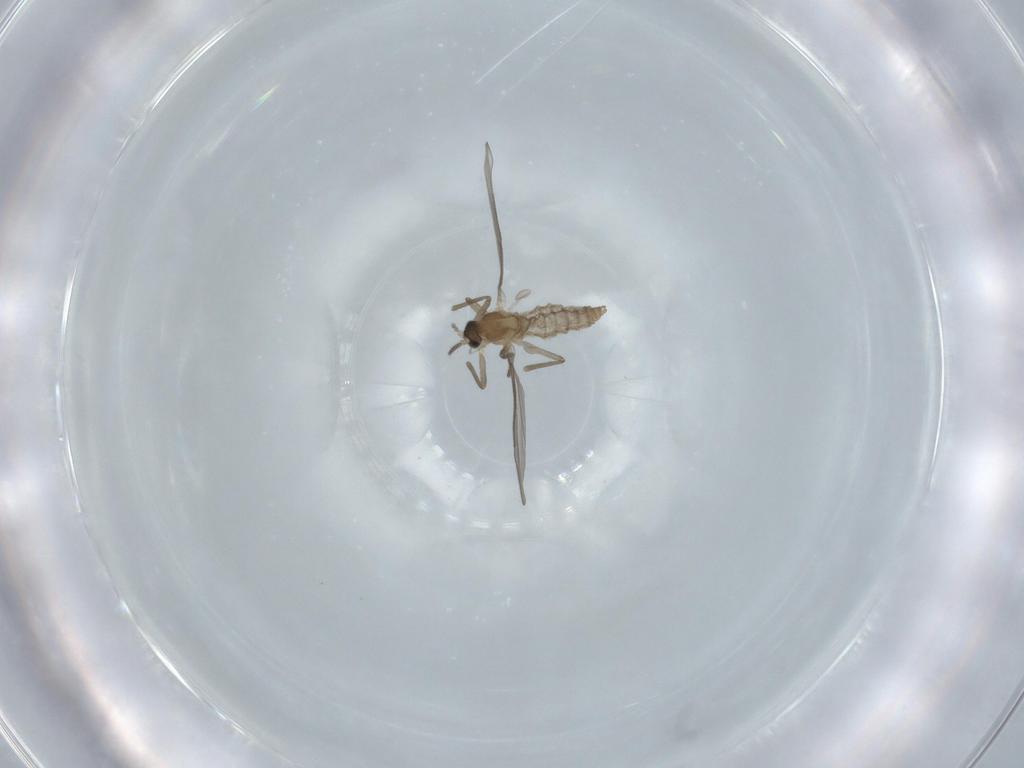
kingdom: Animalia
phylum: Arthropoda
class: Insecta
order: Diptera
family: Cecidomyiidae
